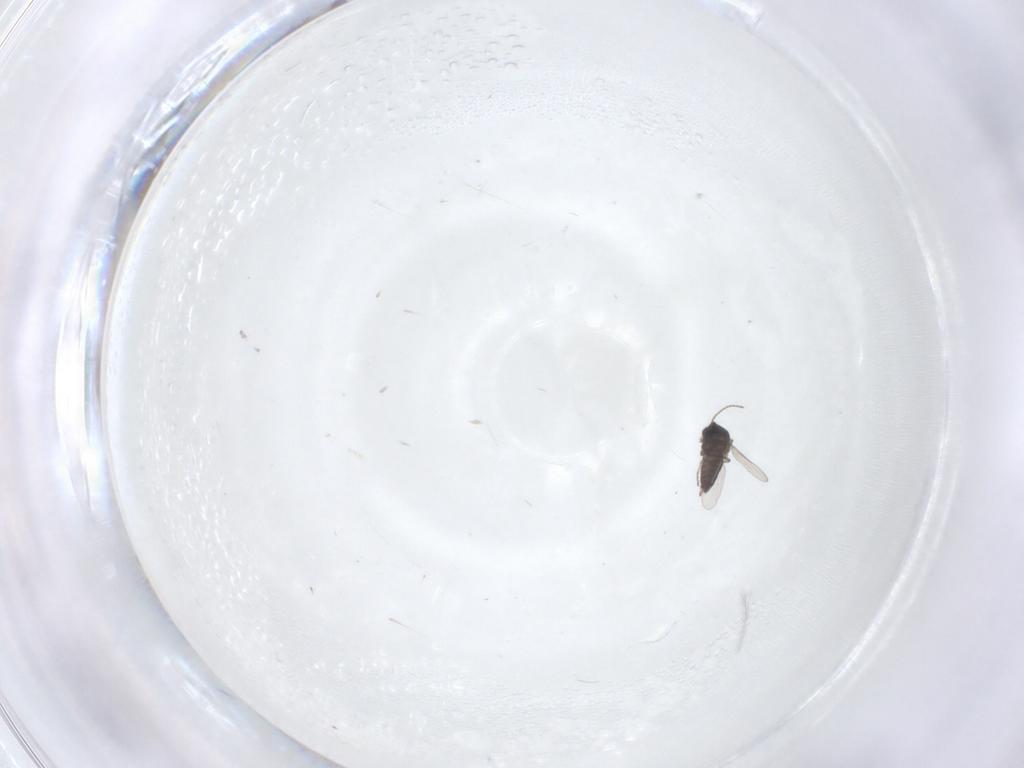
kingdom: Animalia
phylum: Arthropoda
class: Insecta
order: Diptera
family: Ceratopogonidae
